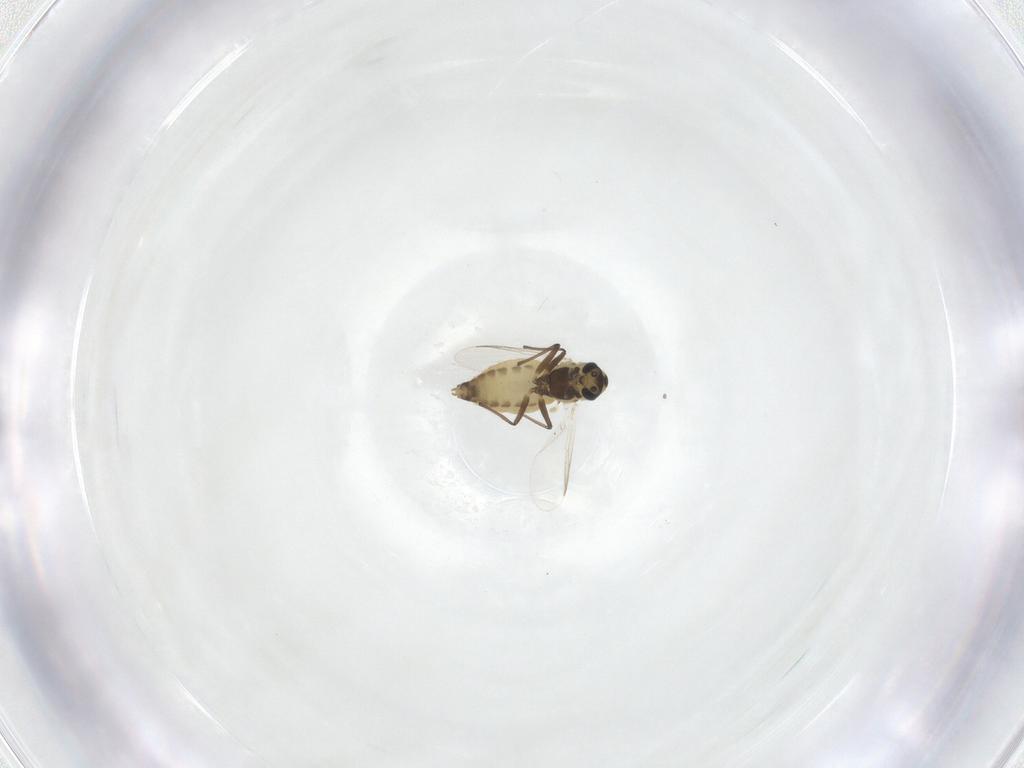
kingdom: Animalia
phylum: Arthropoda
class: Insecta
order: Diptera
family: Chironomidae
